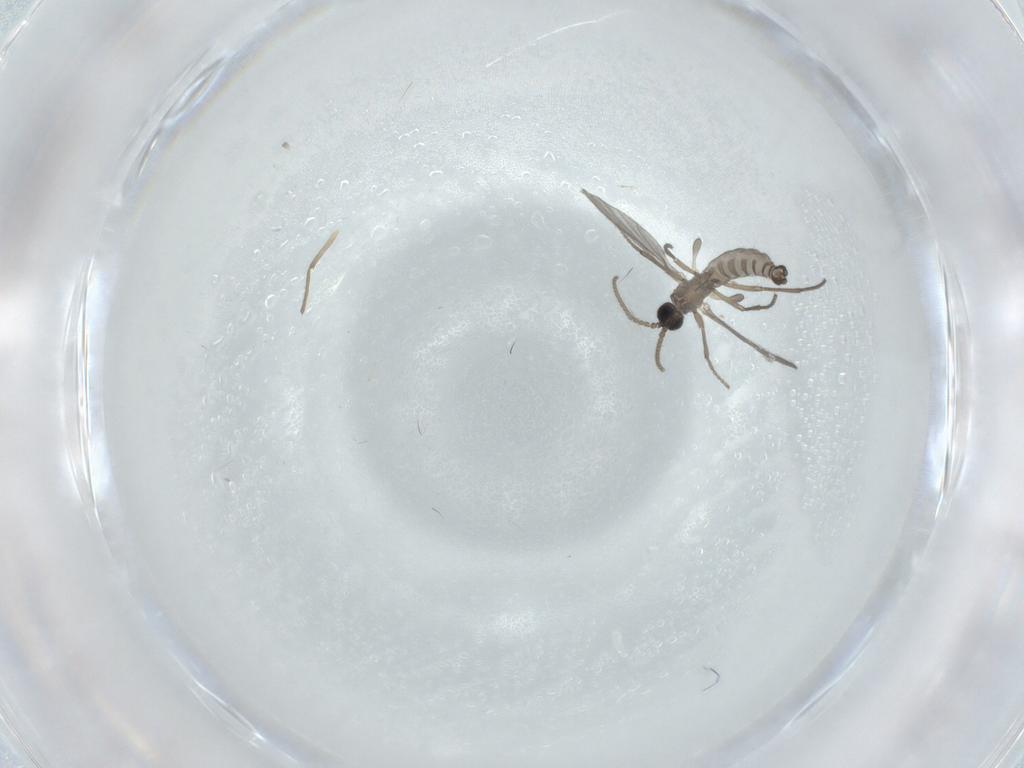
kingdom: Animalia
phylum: Arthropoda
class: Insecta
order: Diptera
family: Sciaridae
